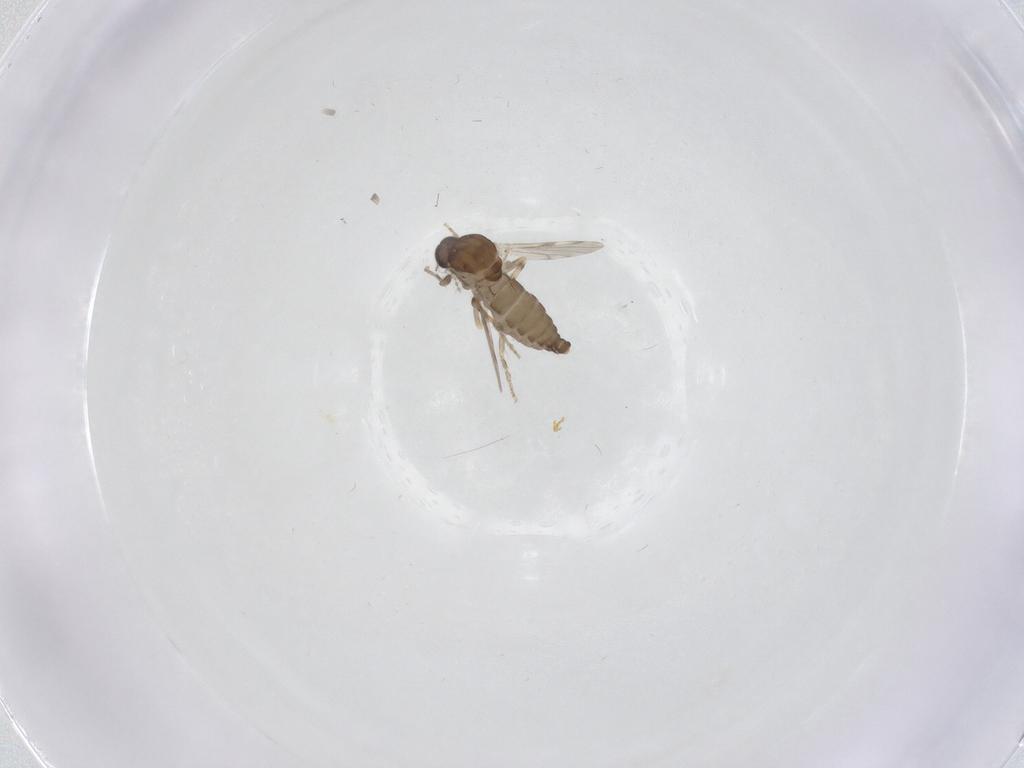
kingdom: Animalia
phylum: Arthropoda
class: Insecta
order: Diptera
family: Ceratopogonidae
